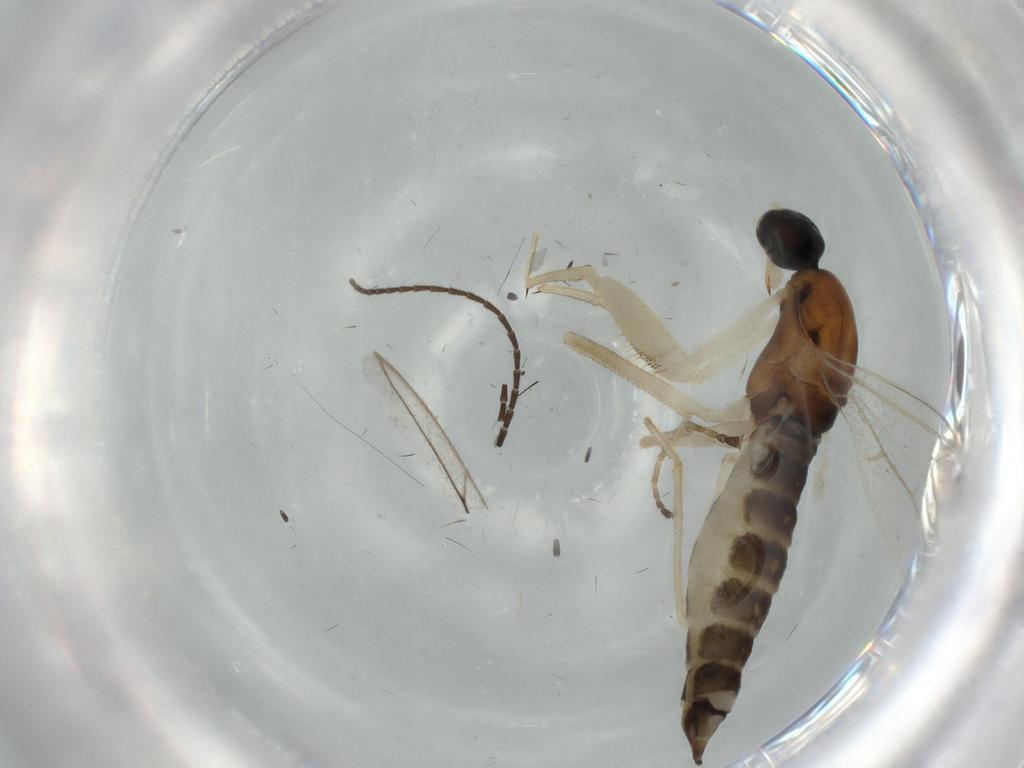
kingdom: Animalia
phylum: Arthropoda
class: Insecta
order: Diptera
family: Empididae
